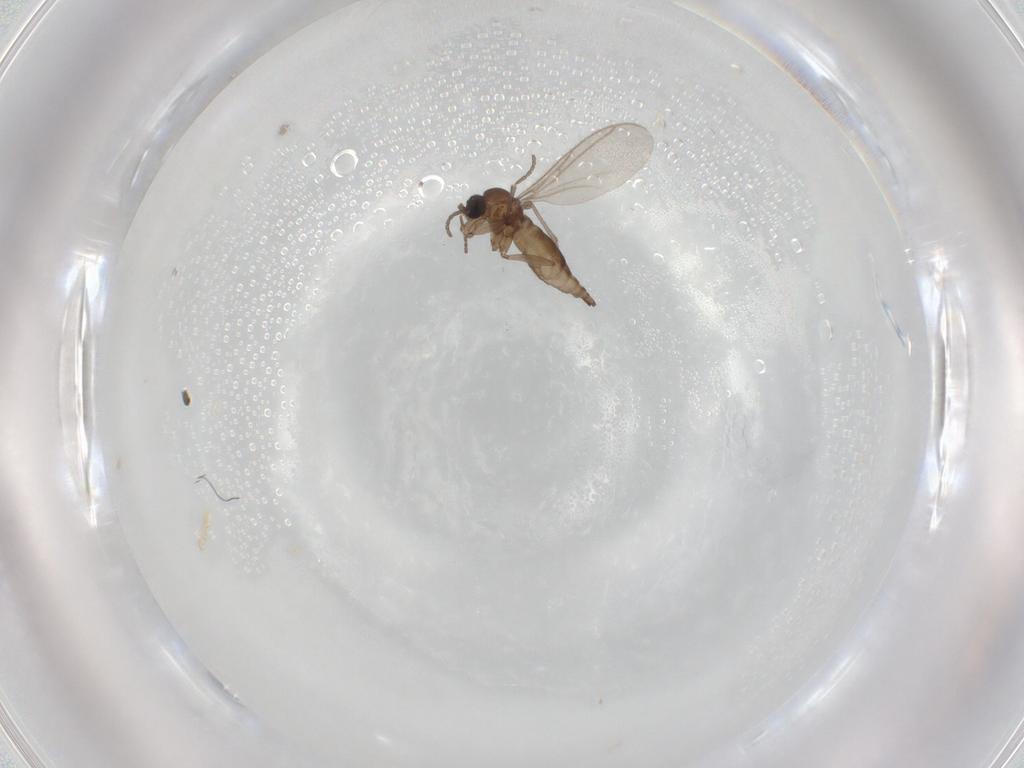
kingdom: Animalia
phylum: Arthropoda
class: Insecta
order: Diptera
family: Sciaridae
